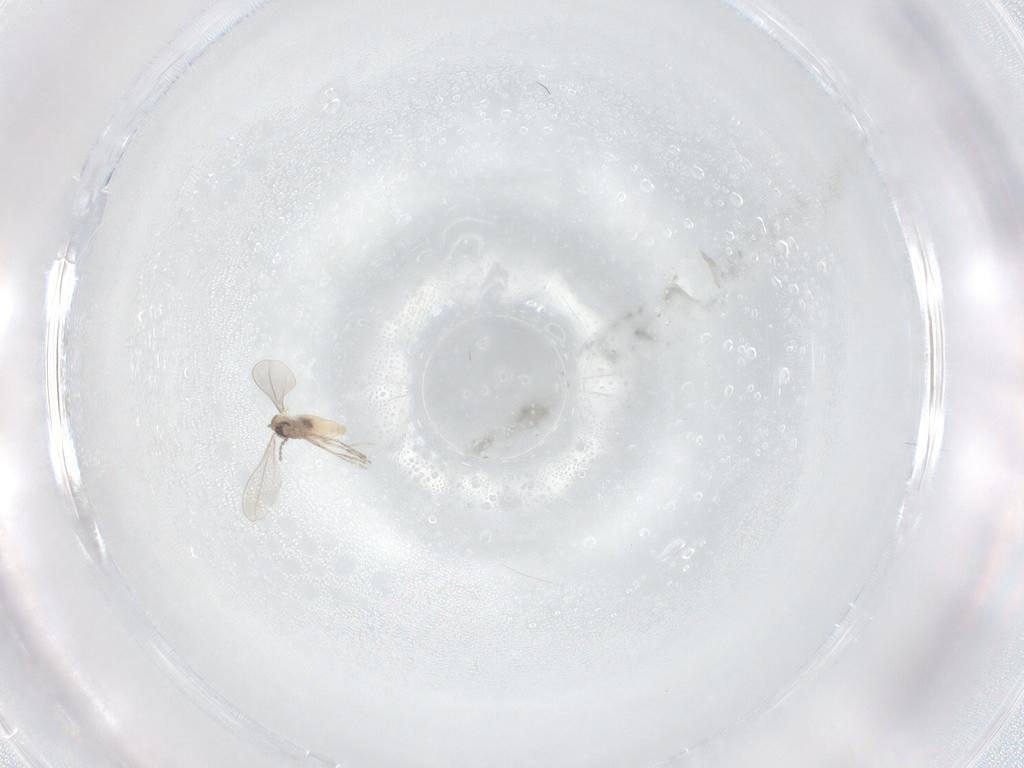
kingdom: Animalia
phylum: Arthropoda
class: Insecta
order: Diptera
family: Cecidomyiidae
